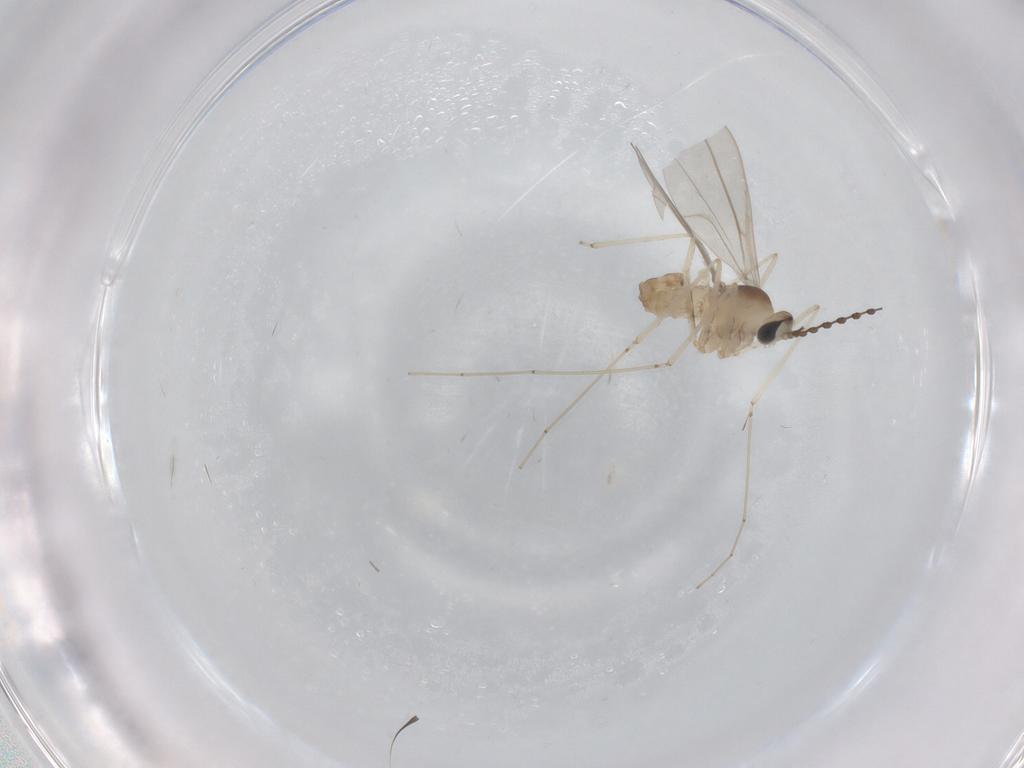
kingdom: Animalia
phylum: Arthropoda
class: Insecta
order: Diptera
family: Cecidomyiidae
